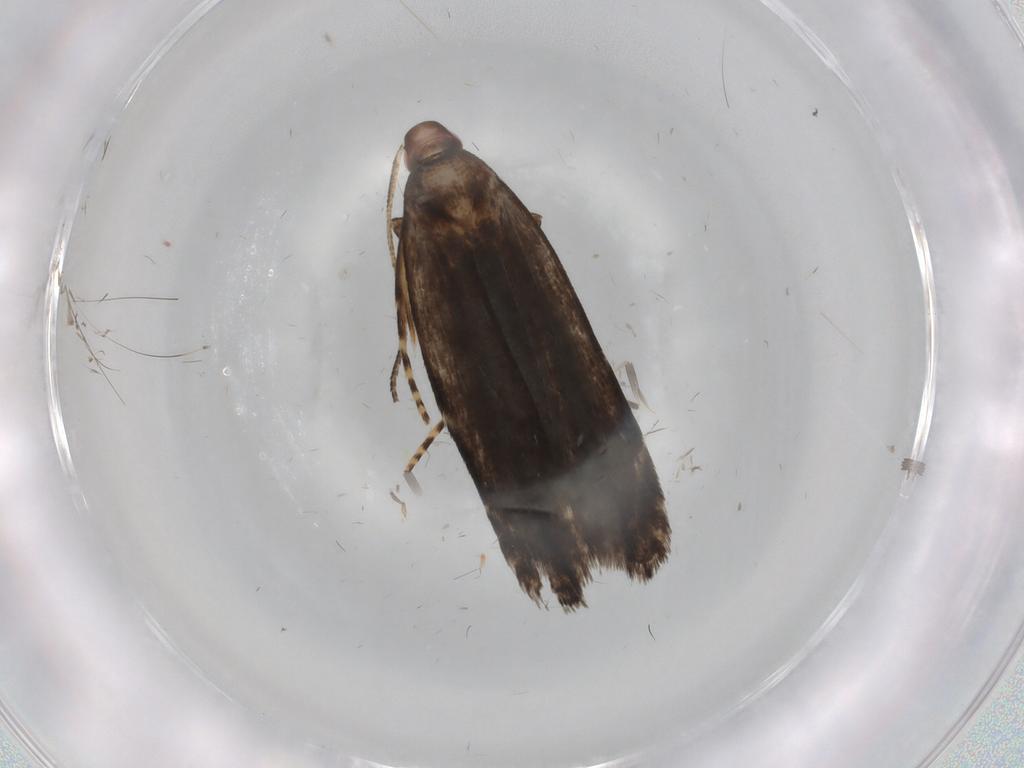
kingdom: Animalia
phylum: Arthropoda
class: Insecta
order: Lepidoptera
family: Gelechiidae
